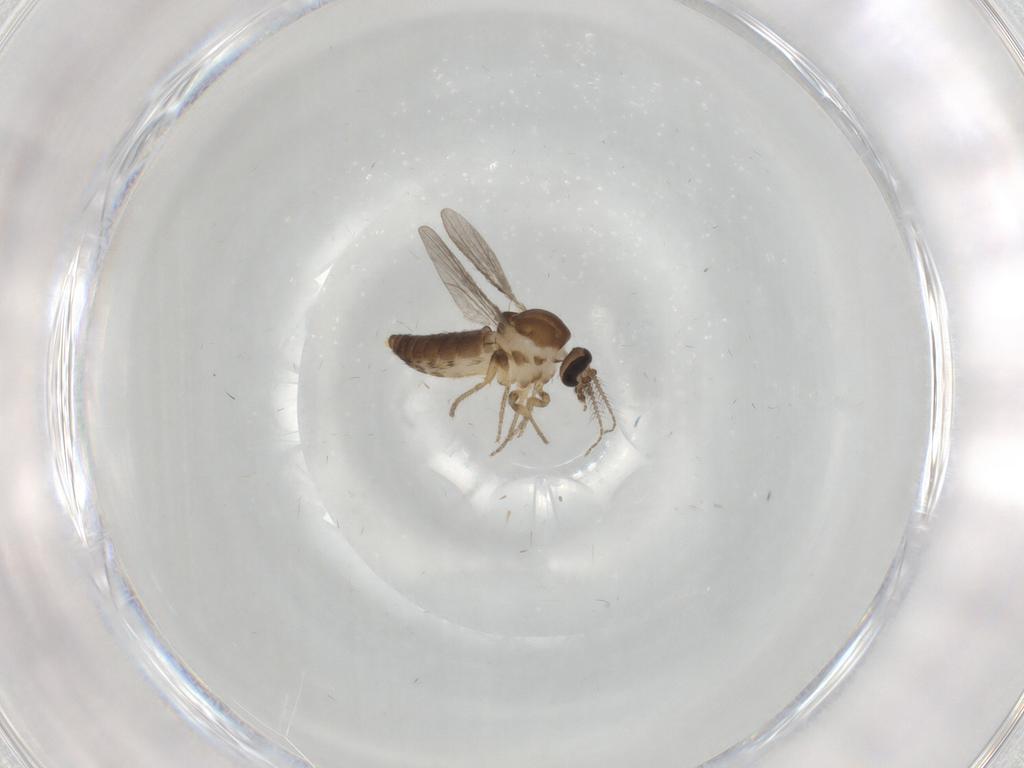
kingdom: Animalia
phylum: Arthropoda
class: Insecta
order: Diptera
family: Ceratopogonidae
